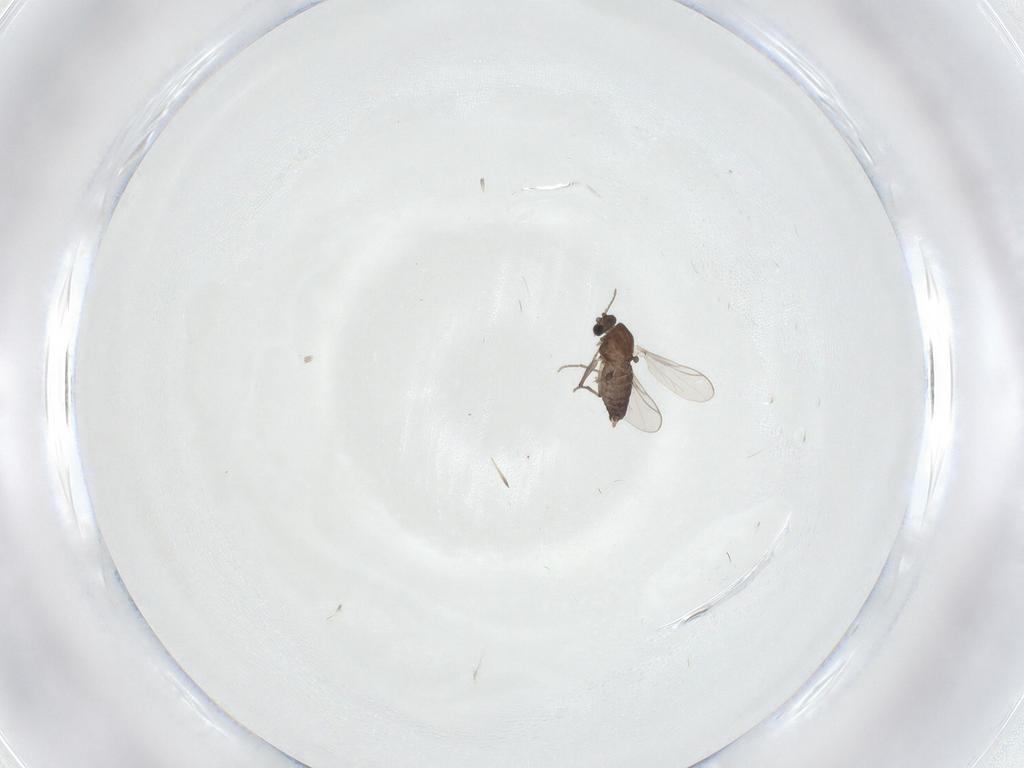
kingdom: Animalia
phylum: Arthropoda
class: Insecta
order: Diptera
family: Chironomidae
